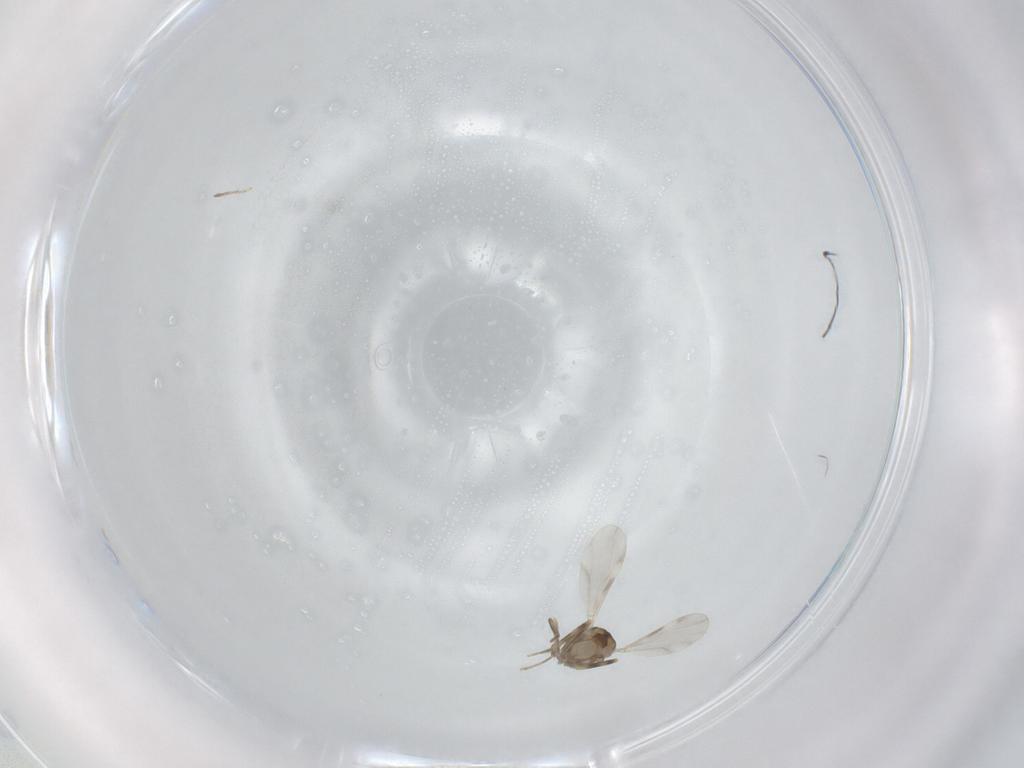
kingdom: Animalia
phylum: Arthropoda
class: Insecta
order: Diptera
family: Ceratopogonidae
